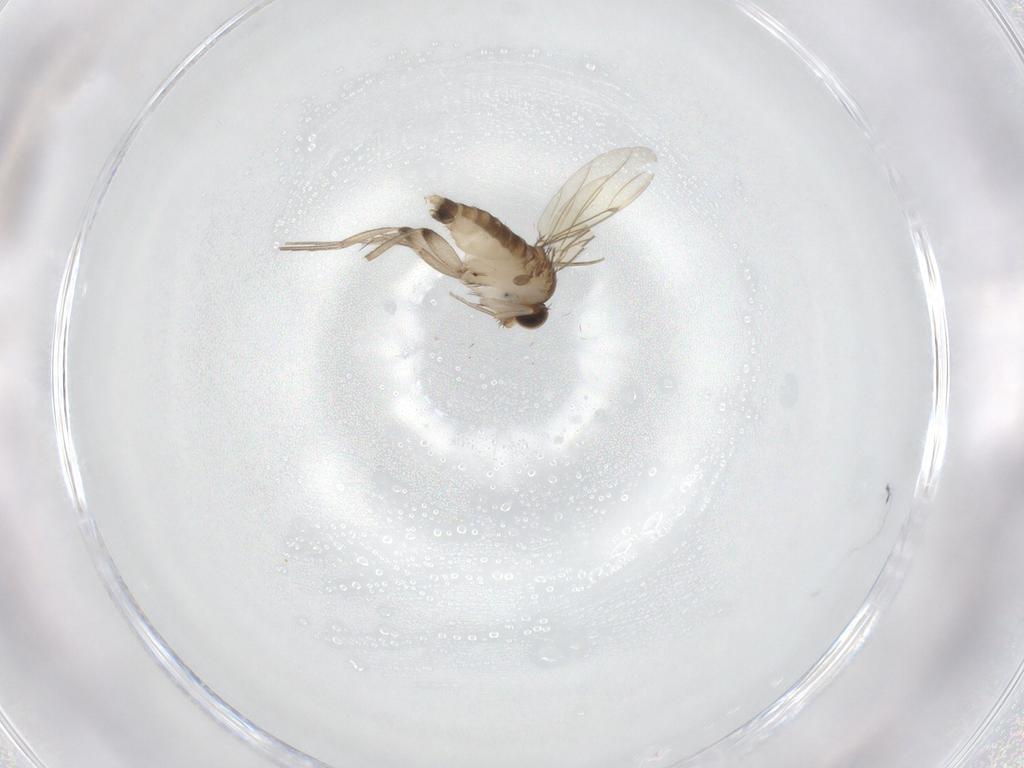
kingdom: Animalia
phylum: Arthropoda
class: Insecta
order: Diptera
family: Phoridae
